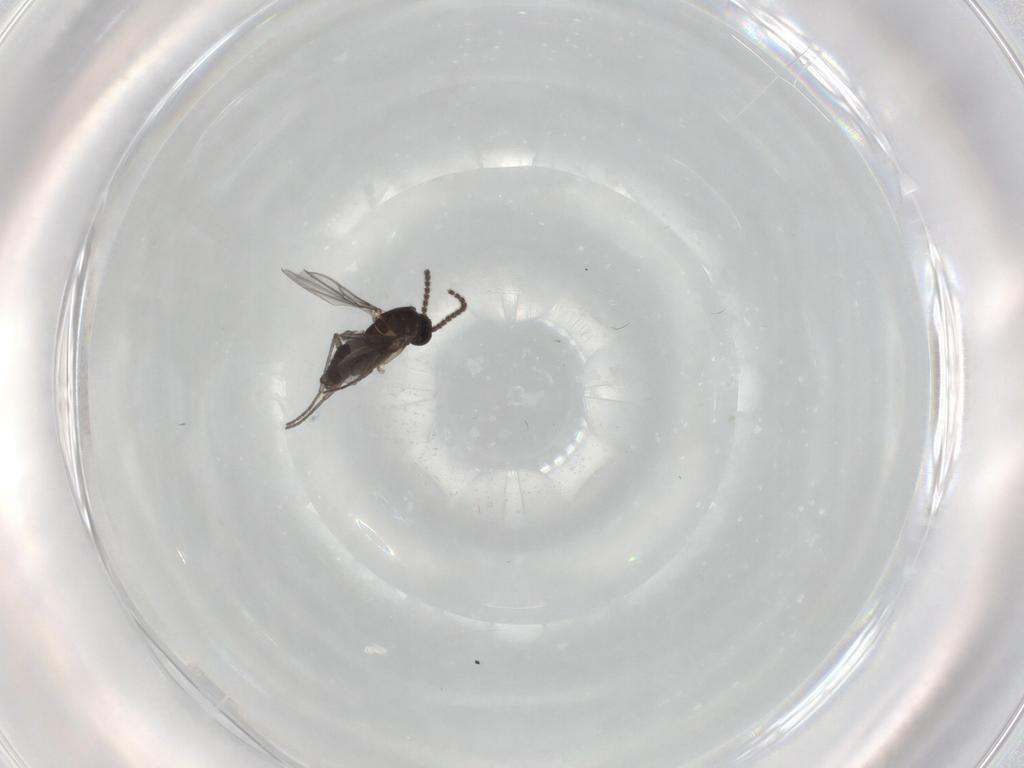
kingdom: Animalia
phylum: Arthropoda
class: Insecta
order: Diptera
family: Sciaridae
